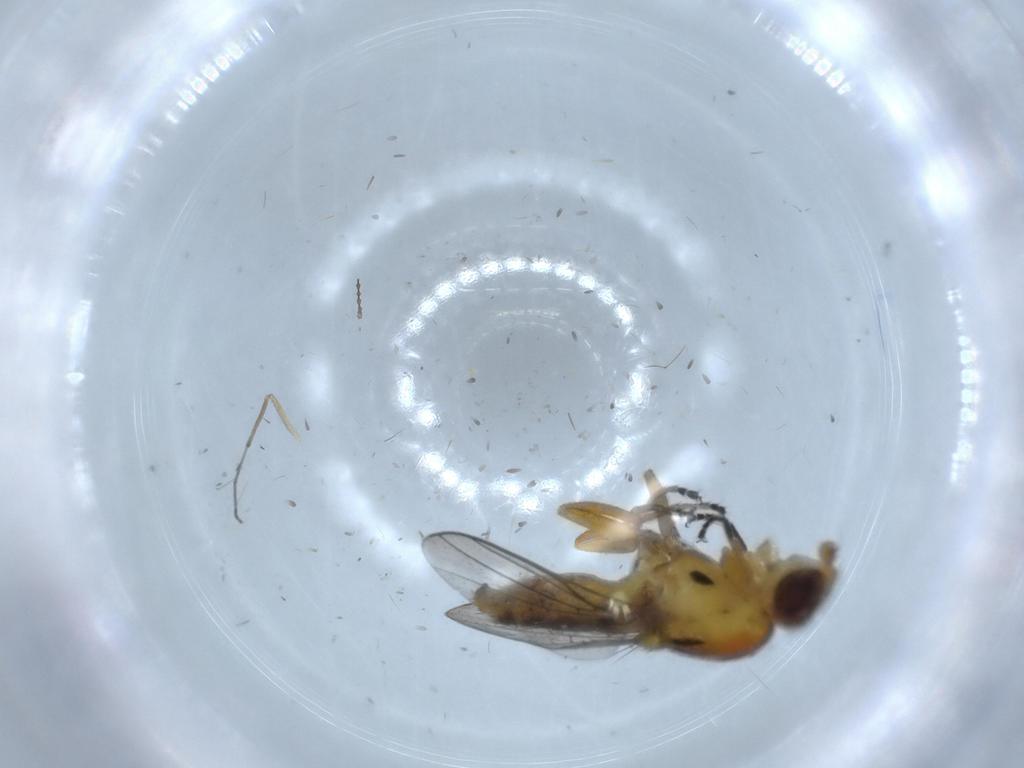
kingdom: Animalia
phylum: Arthropoda
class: Insecta
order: Diptera
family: Chloropidae
